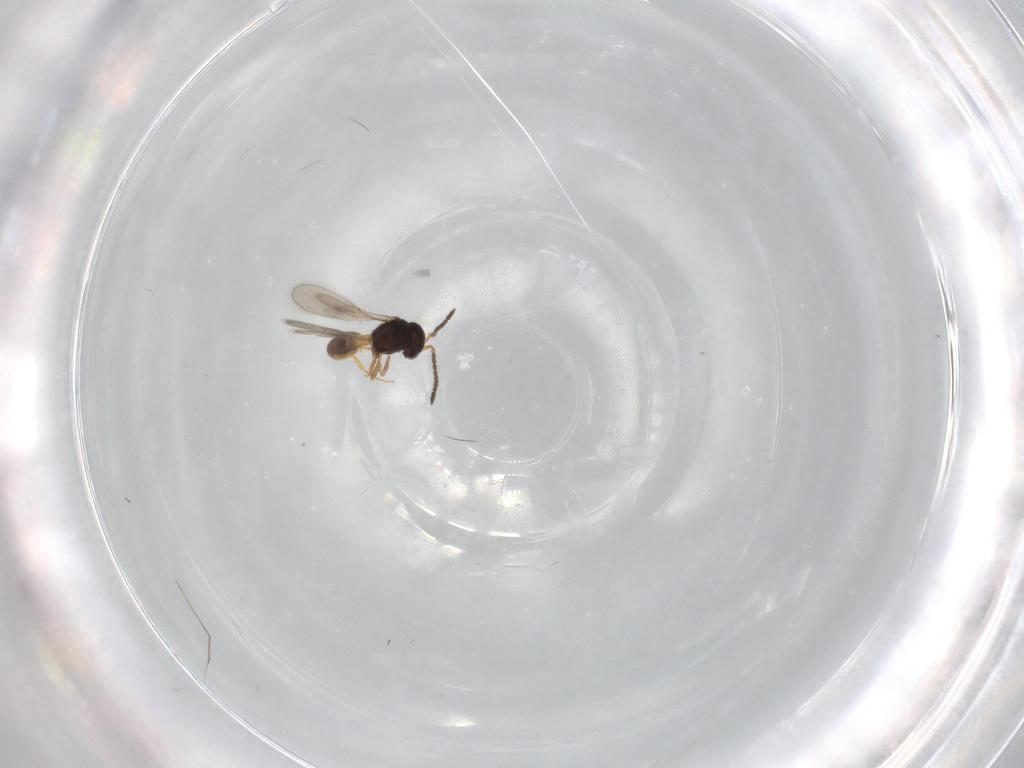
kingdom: Animalia
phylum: Arthropoda
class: Insecta
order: Hymenoptera
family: Scelionidae
